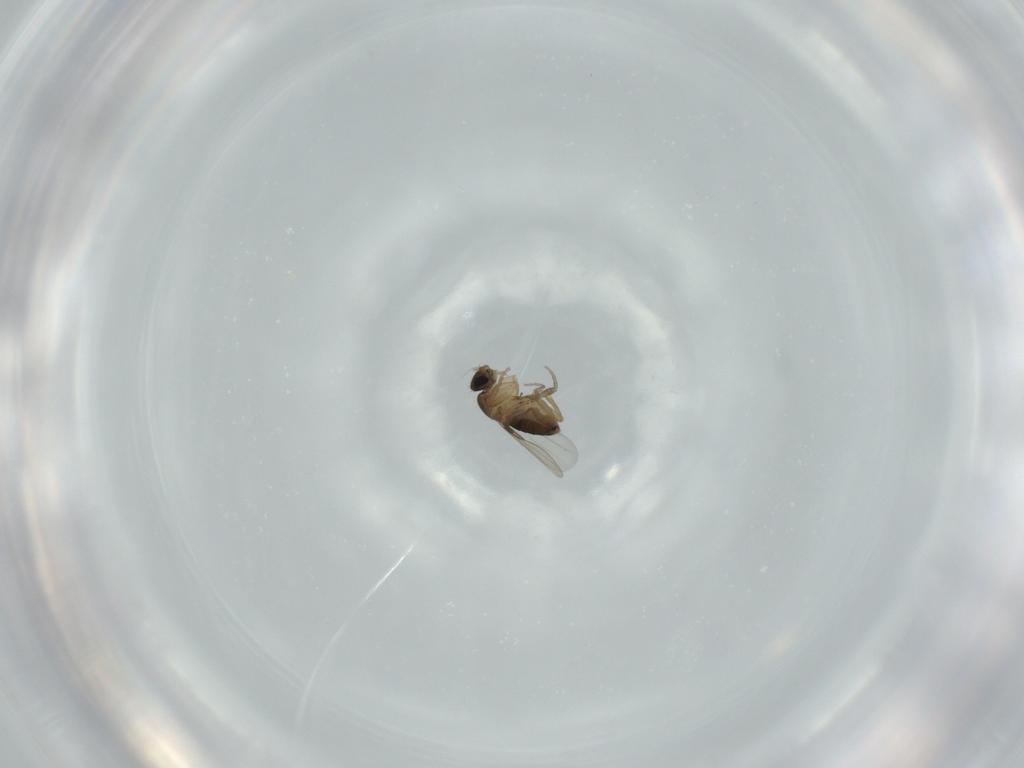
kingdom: Animalia
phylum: Arthropoda
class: Insecta
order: Diptera
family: Phoridae
